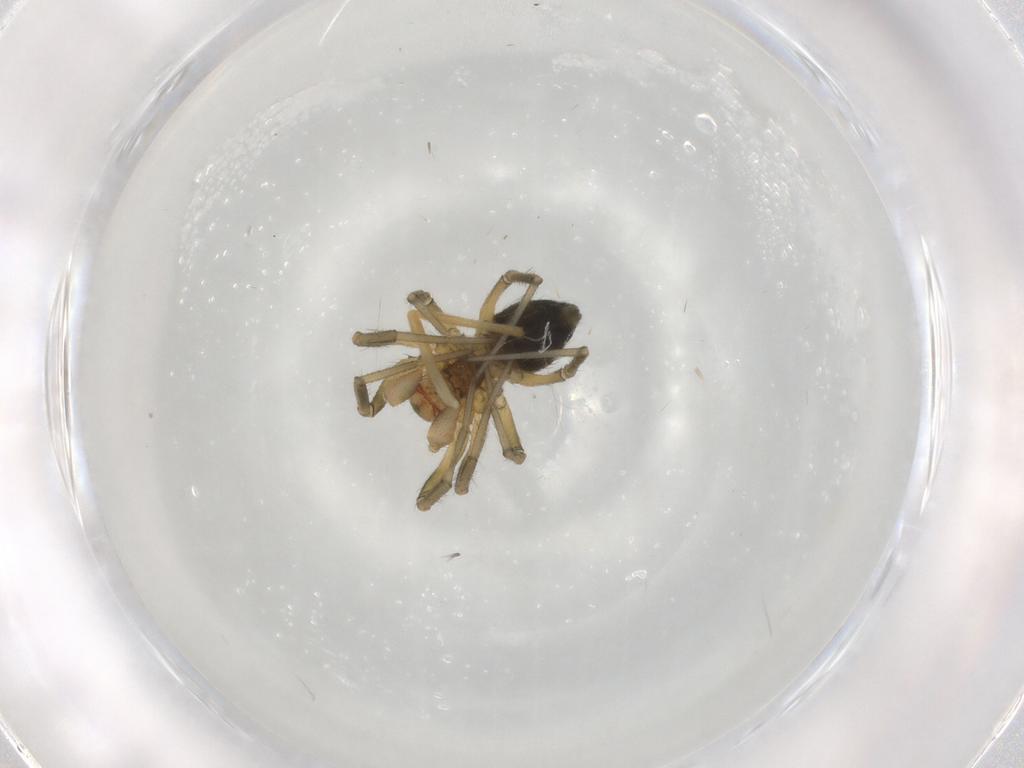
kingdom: Animalia
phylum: Arthropoda
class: Arachnida
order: Araneae
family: Linyphiidae
